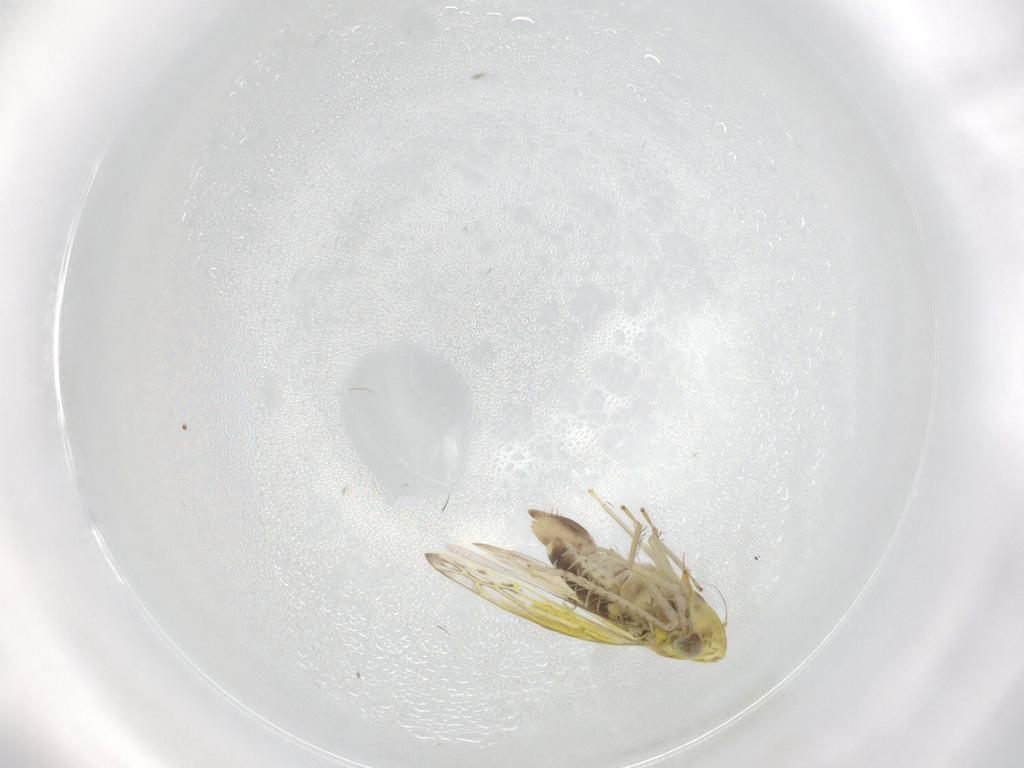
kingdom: Animalia
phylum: Arthropoda
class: Insecta
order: Hemiptera
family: Cicadellidae
